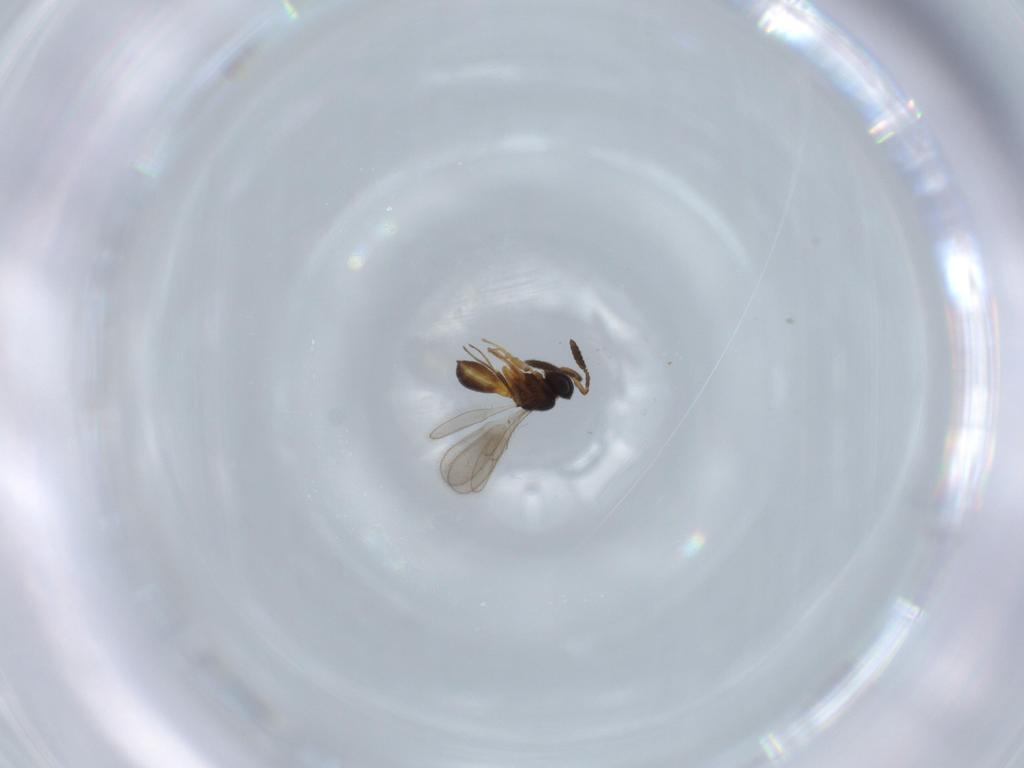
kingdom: Animalia
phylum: Arthropoda
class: Insecta
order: Hymenoptera
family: Scelionidae
